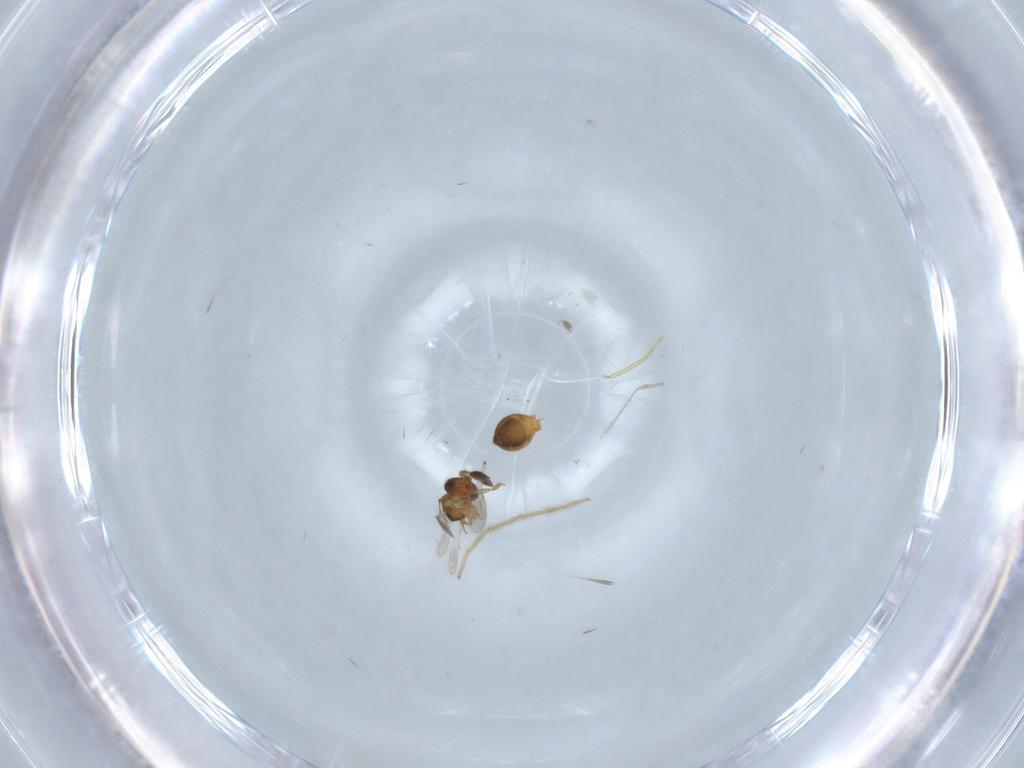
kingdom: Animalia
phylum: Arthropoda
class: Insecta
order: Hymenoptera
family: Scelionidae
